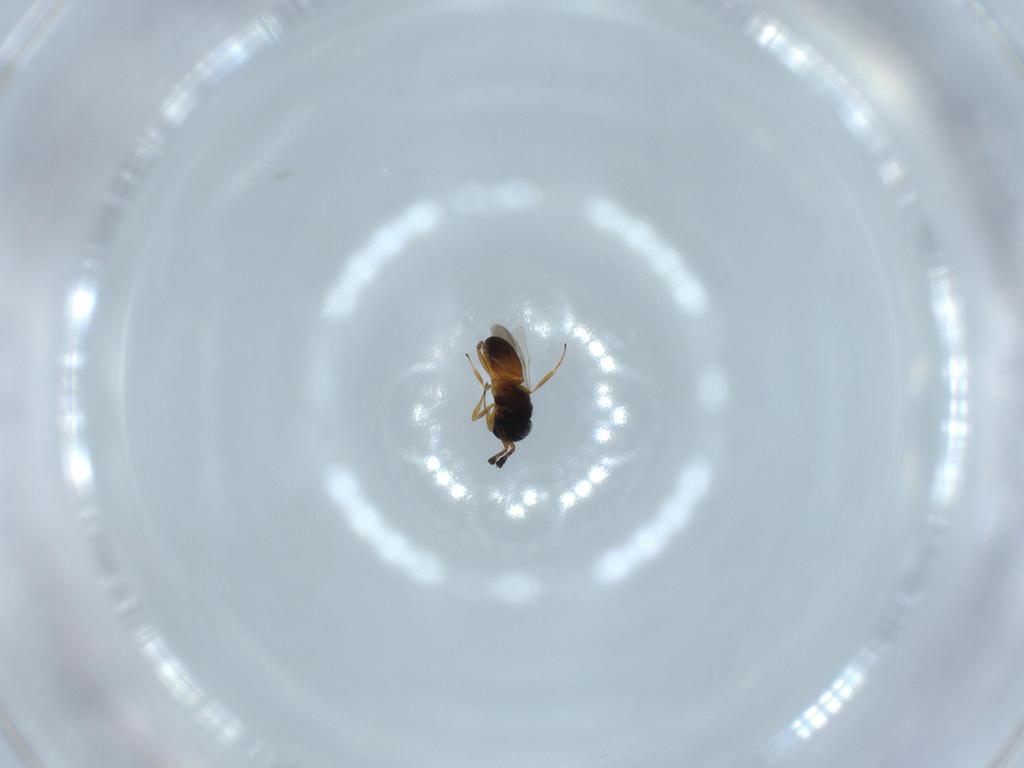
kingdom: Animalia
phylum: Arthropoda
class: Insecta
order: Hymenoptera
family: Scelionidae
